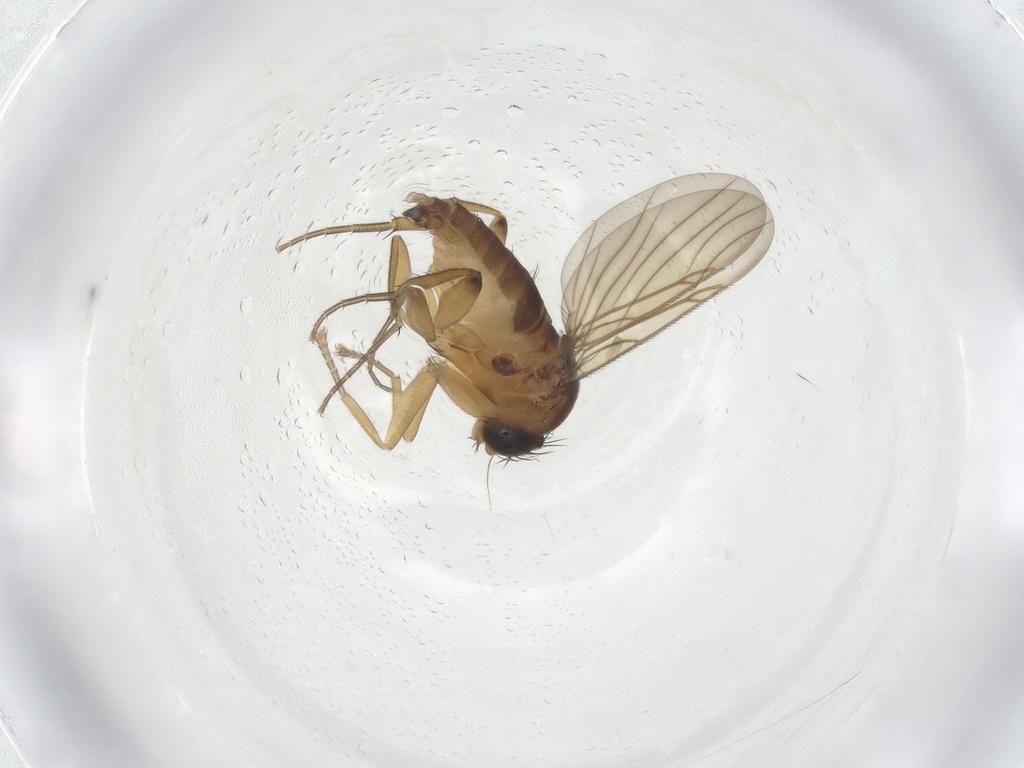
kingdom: Animalia
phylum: Arthropoda
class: Insecta
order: Diptera
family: Phoridae
